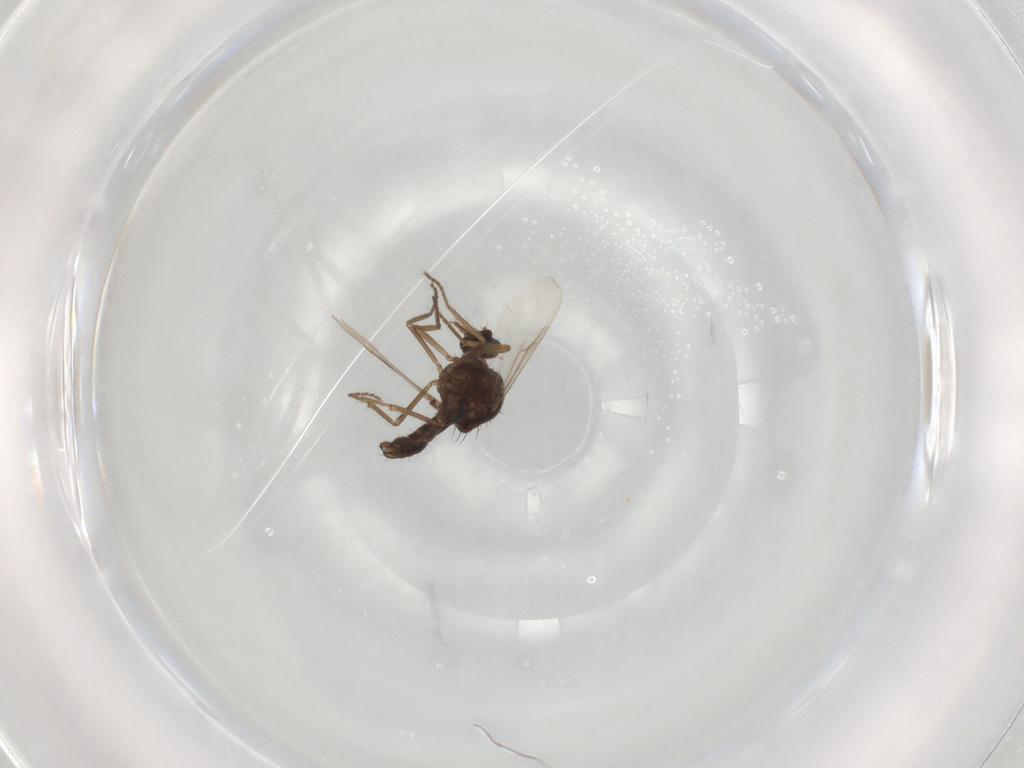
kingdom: Animalia
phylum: Arthropoda
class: Insecta
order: Diptera
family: Ceratopogonidae
